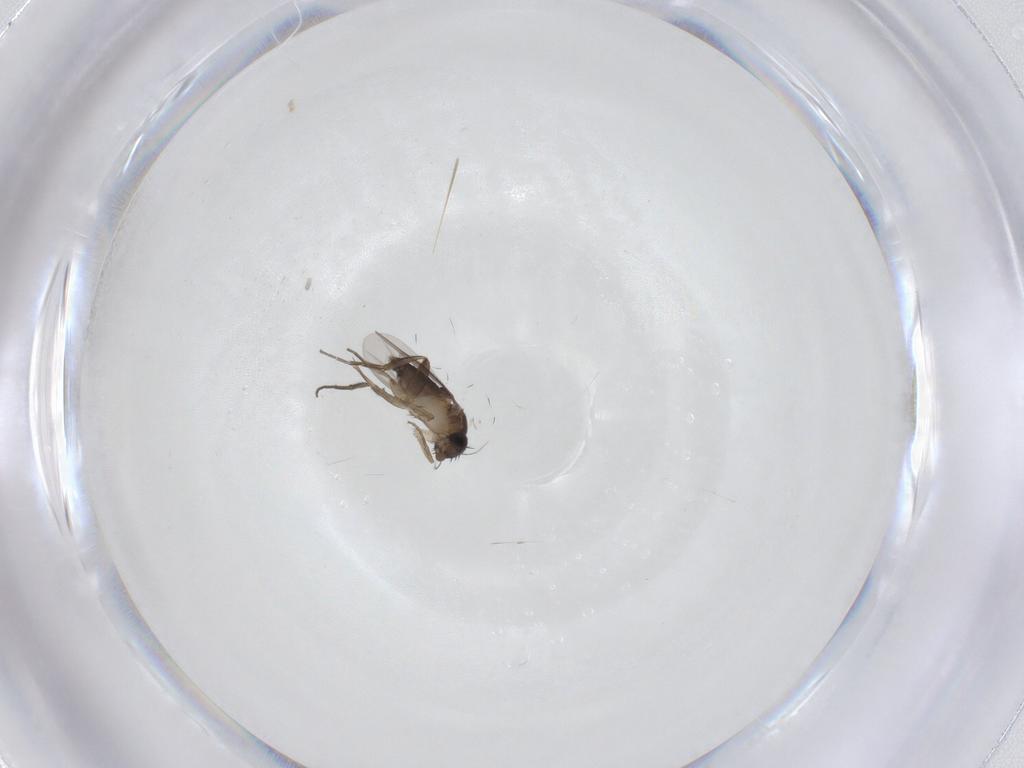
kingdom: Animalia
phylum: Arthropoda
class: Insecta
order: Diptera
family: Phoridae
